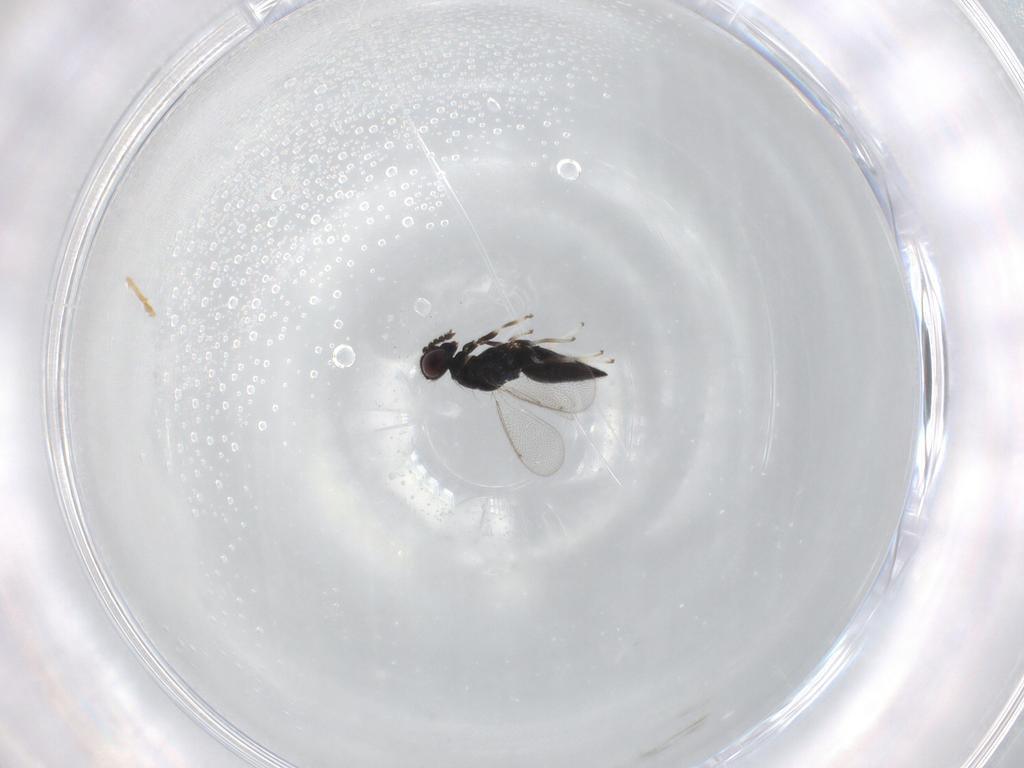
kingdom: Animalia
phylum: Arthropoda
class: Insecta
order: Hymenoptera
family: Eulophidae
